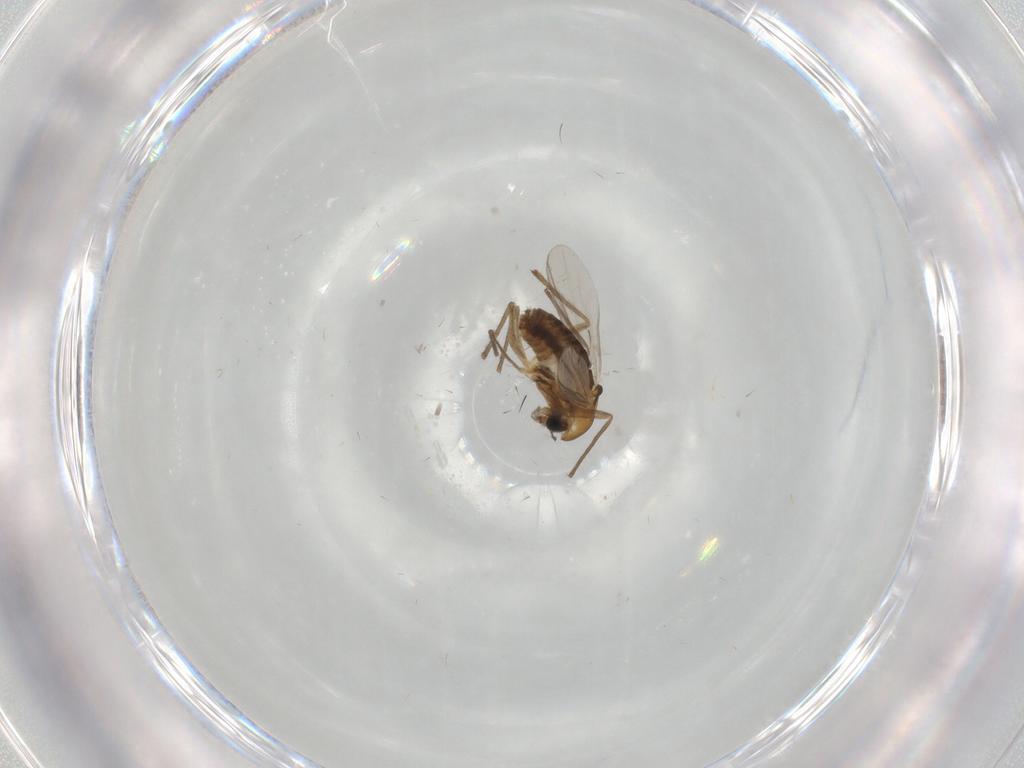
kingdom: Animalia
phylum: Arthropoda
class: Insecta
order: Diptera
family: Chironomidae
